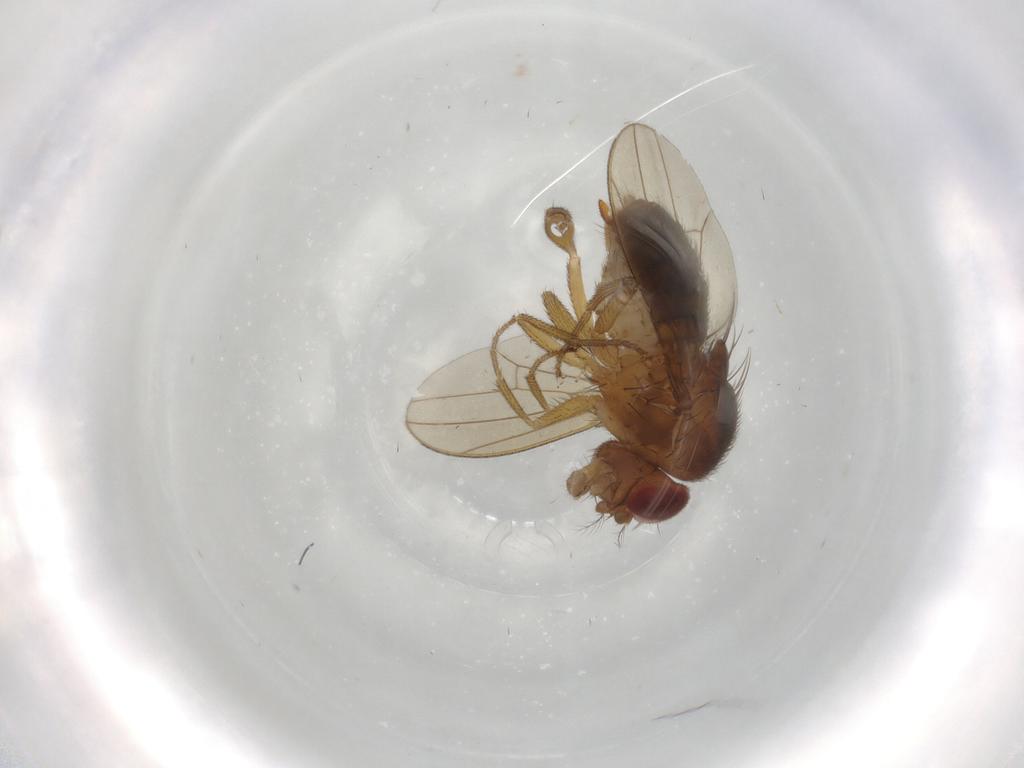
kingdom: Animalia
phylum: Arthropoda
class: Insecta
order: Diptera
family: Drosophilidae
